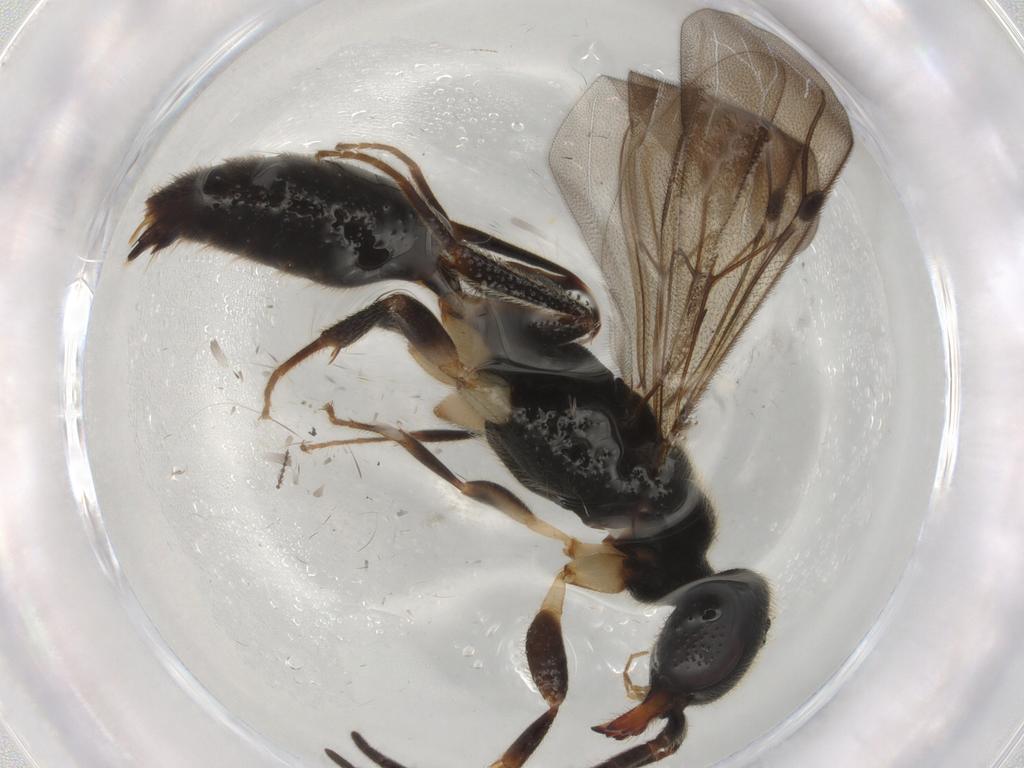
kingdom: Animalia
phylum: Arthropoda
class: Insecta
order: Hymenoptera
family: Bethylidae
